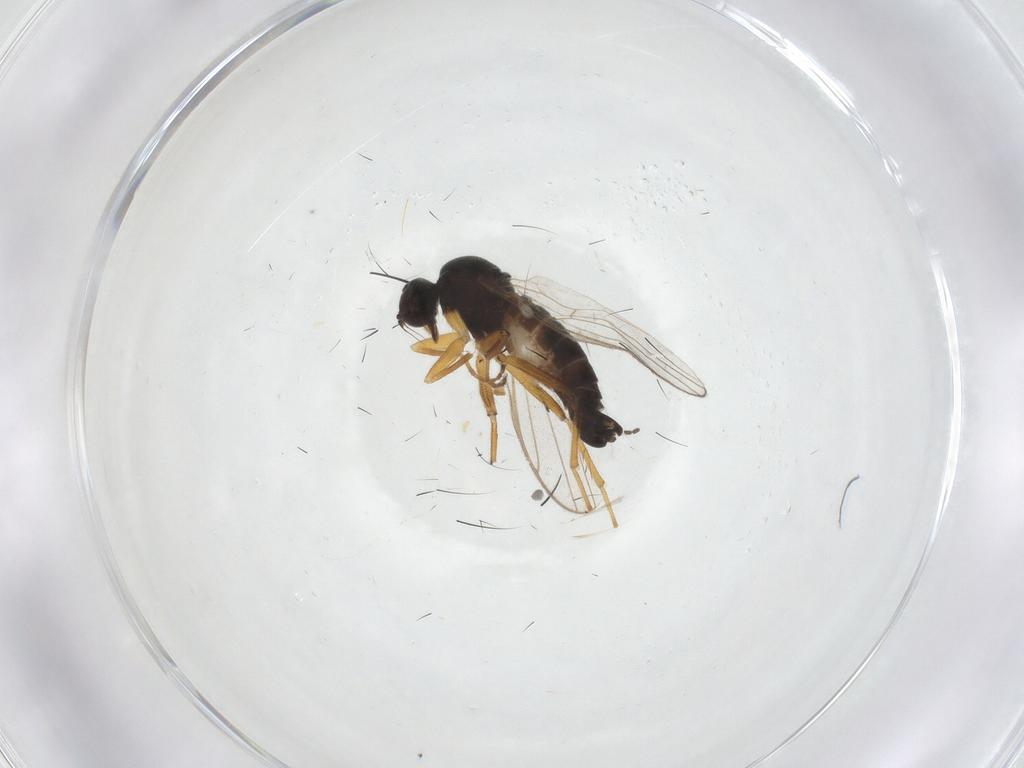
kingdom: Animalia
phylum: Arthropoda
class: Insecta
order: Diptera
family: Hybotidae
